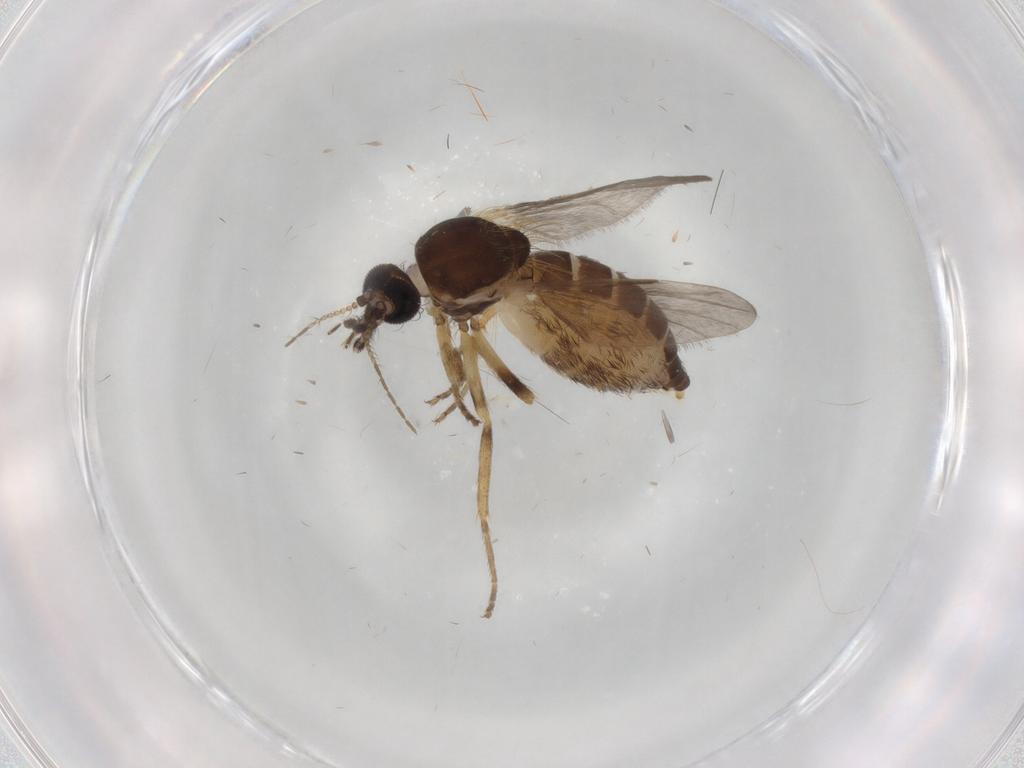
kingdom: Animalia
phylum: Arthropoda
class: Insecta
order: Diptera
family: Ceratopogonidae
